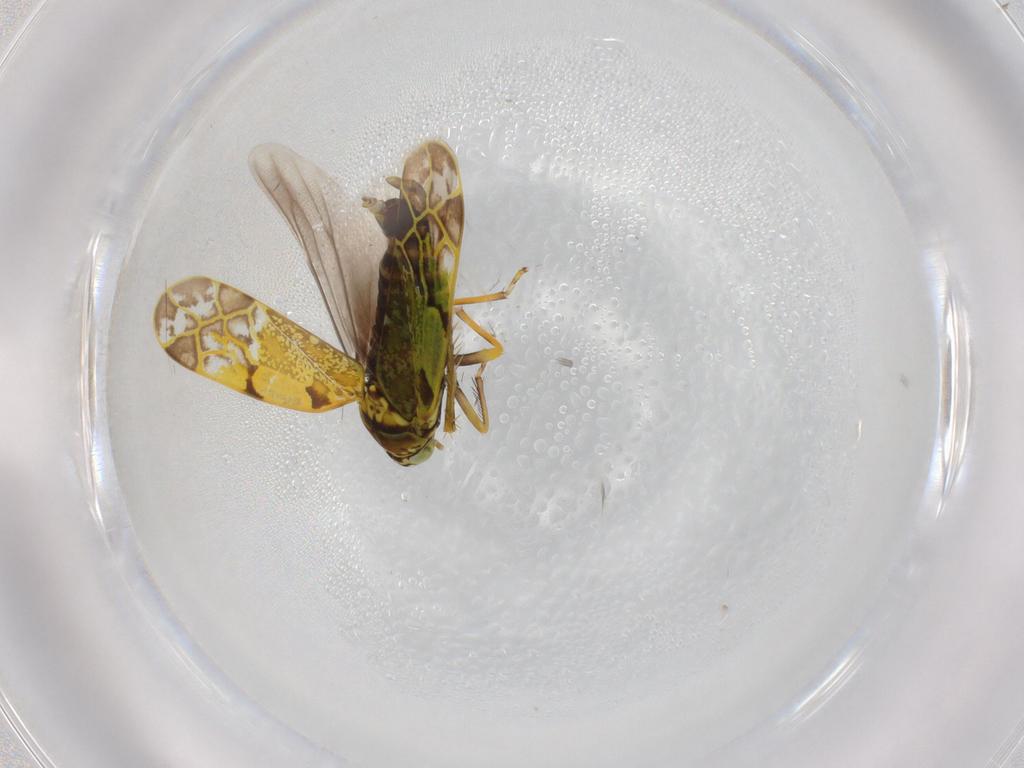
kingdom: Animalia
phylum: Arthropoda
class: Insecta
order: Hemiptera
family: Cicadellidae
